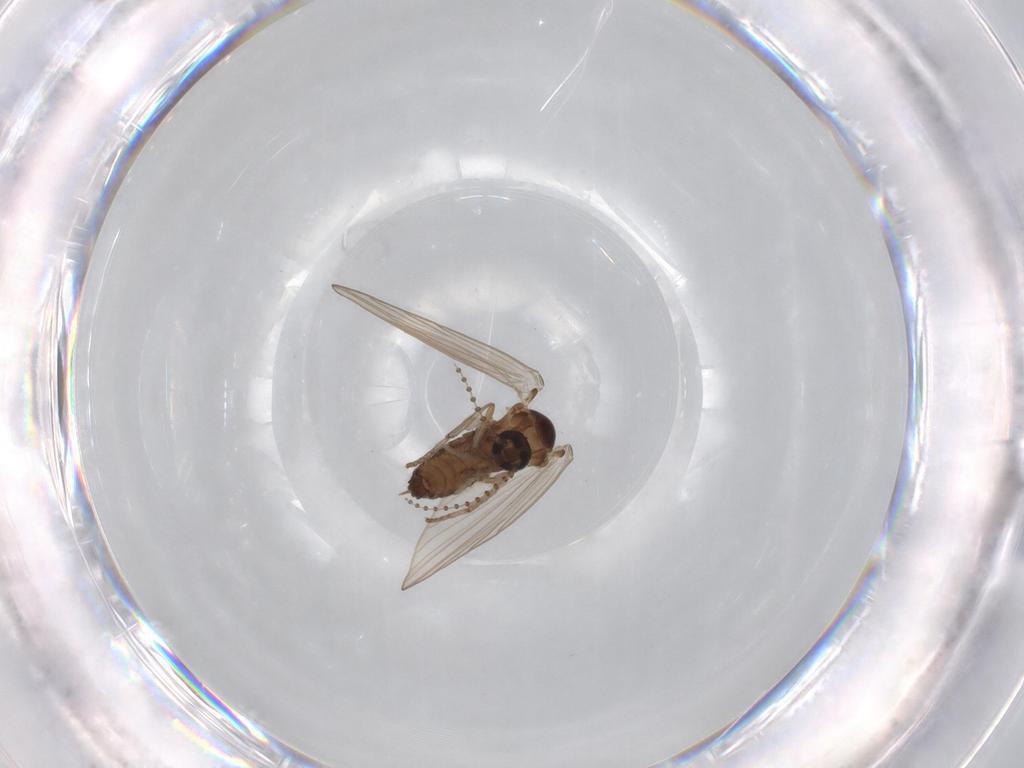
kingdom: Animalia
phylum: Arthropoda
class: Insecta
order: Diptera
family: Psychodidae
